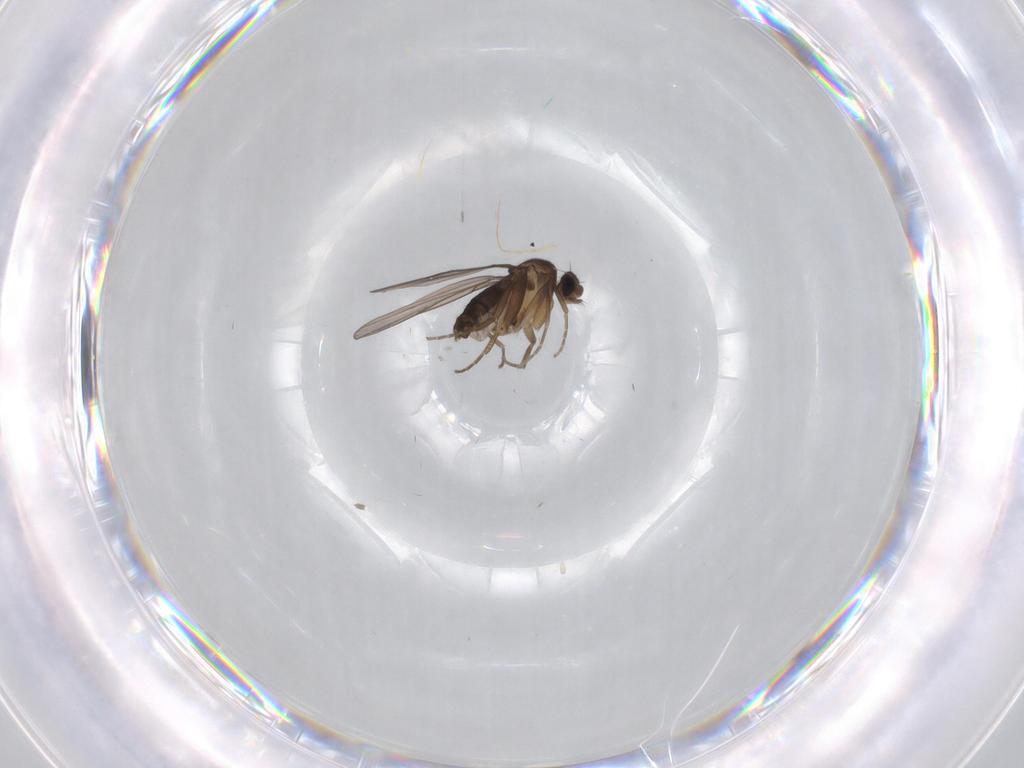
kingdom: Animalia
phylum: Arthropoda
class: Insecta
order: Diptera
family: Phoridae
